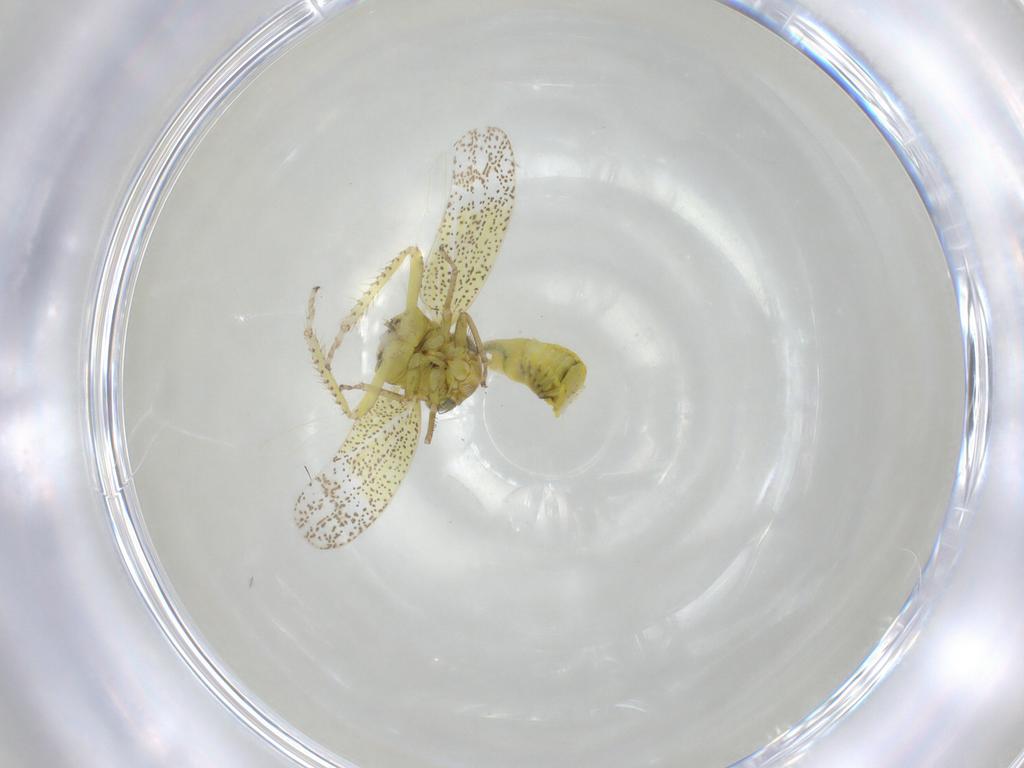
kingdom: Animalia
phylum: Arthropoda
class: Insecta
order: Hemiptera
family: Cicadellidae
